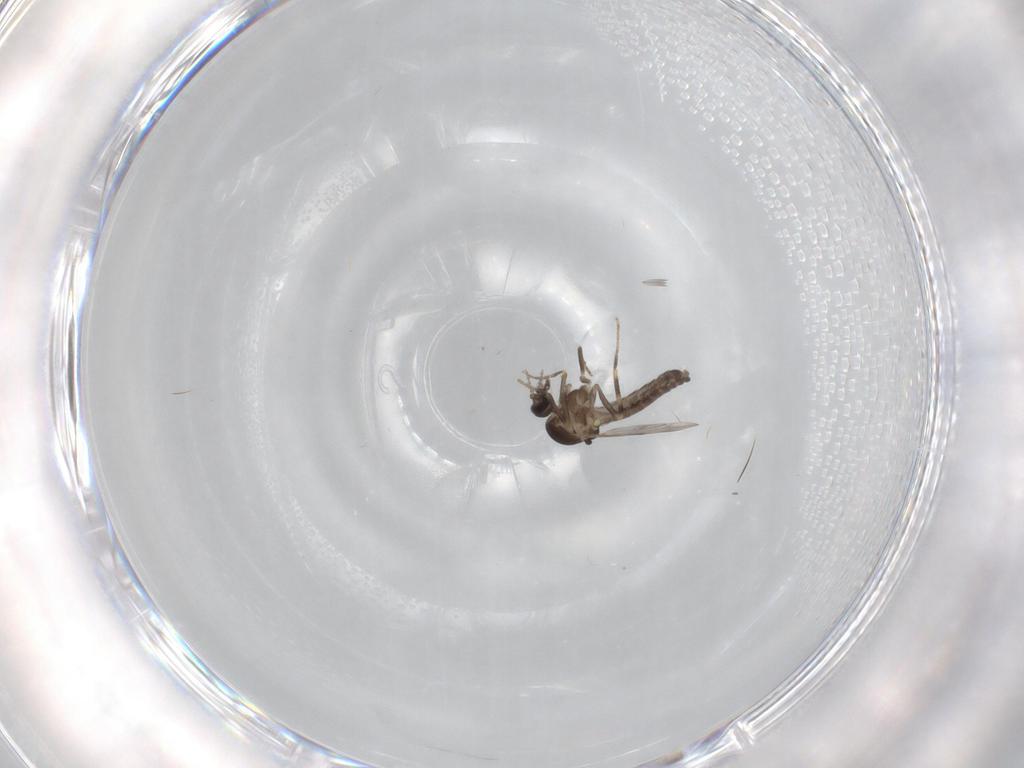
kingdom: Animalia
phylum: Arthropoda
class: Insecta
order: Diptera
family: Ceratopogonidae
